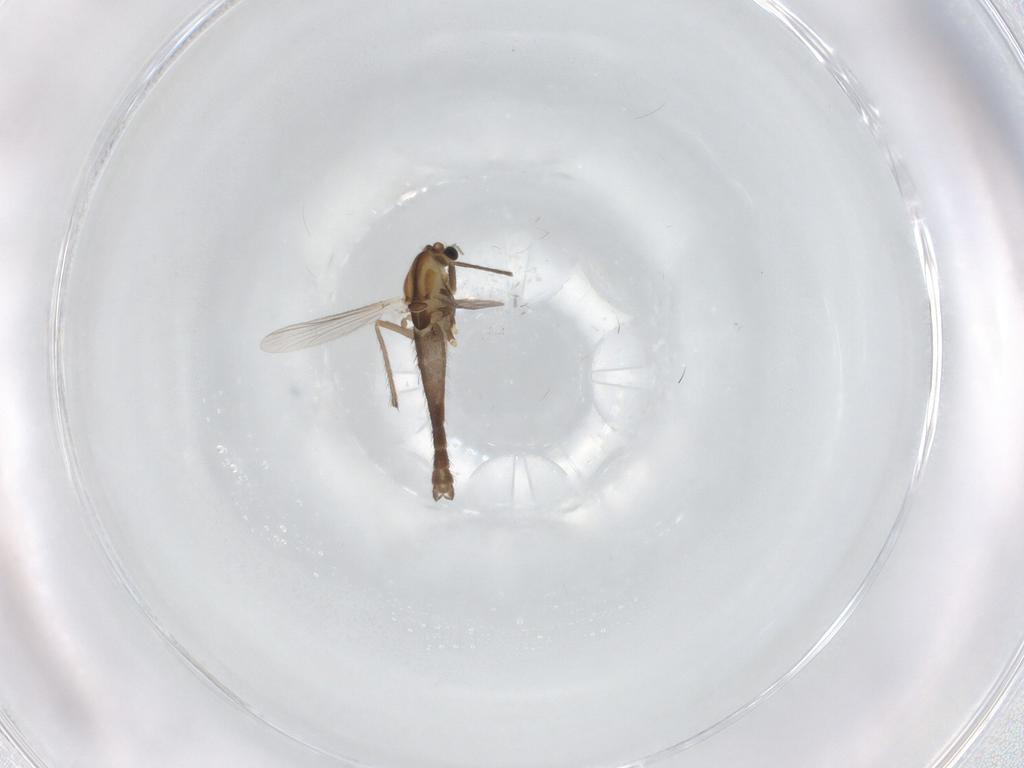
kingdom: Animalia
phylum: Arthropoda
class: Insecta
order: Diptera
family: Chironomidae
